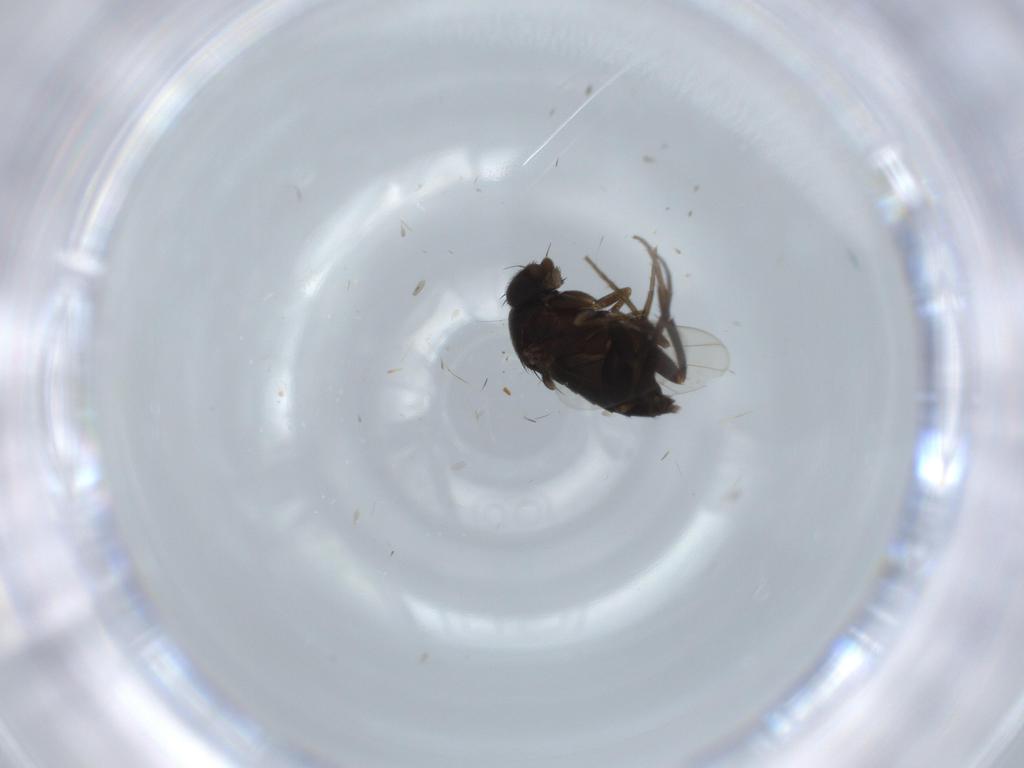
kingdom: Animalia
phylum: Arthropoda
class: Insecta
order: Diptera
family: Phoridae
